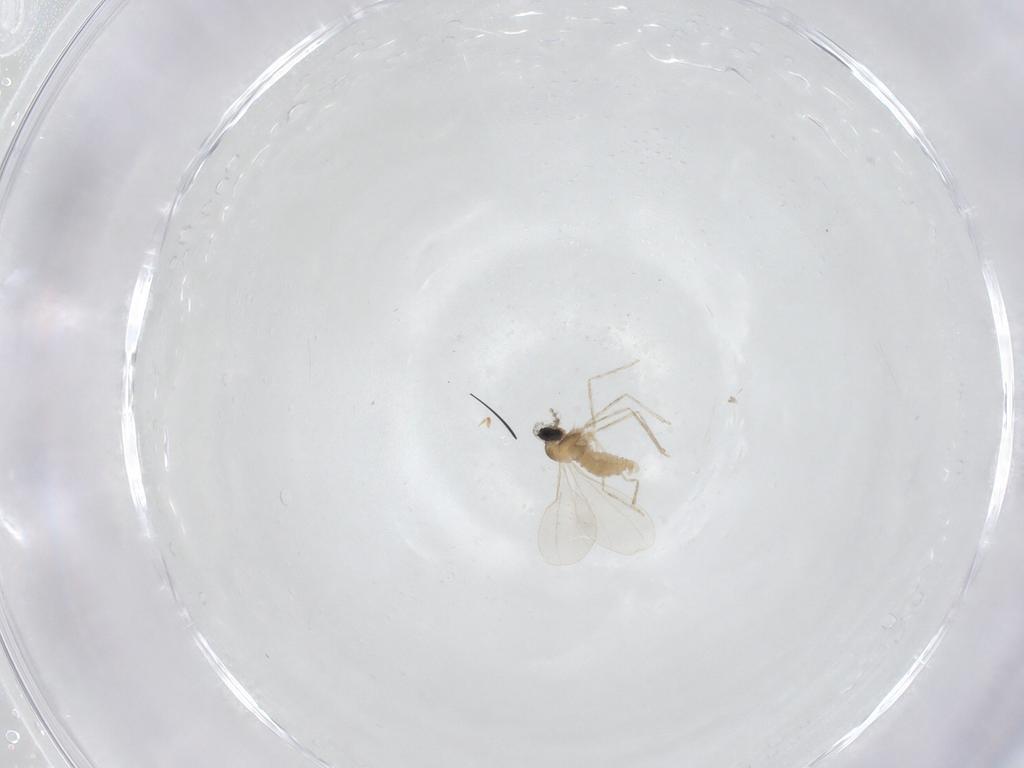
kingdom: Animalia
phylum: Arthropoda
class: Insecta
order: Diptera
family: Cecidomyiidae
